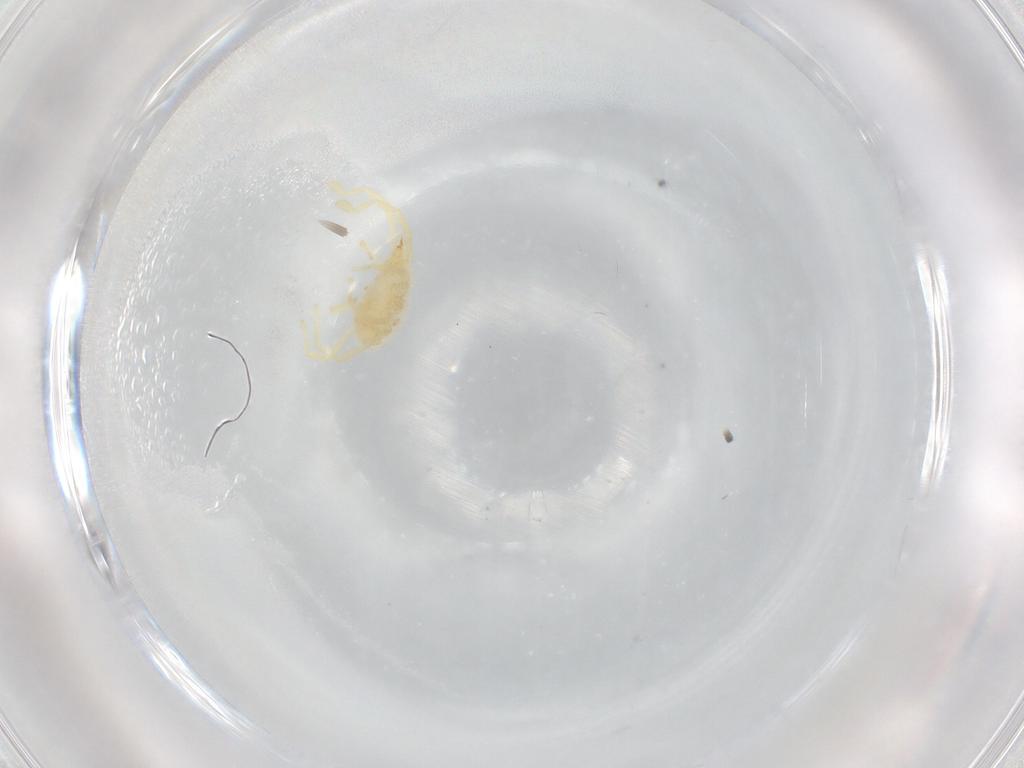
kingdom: Animalia
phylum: Arthropoda
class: Arachnida
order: Trombidiformes
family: Erythraeidae
